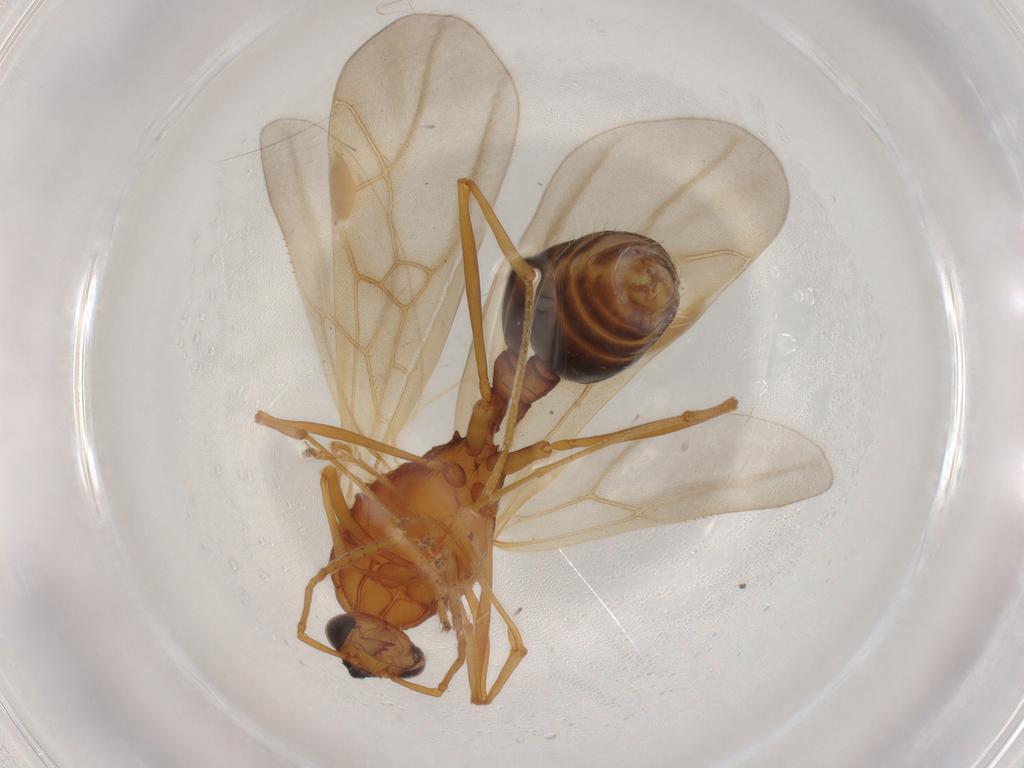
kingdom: Animalia
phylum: Arthropoda
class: Insecta
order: Hymenoptera
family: Formicidae
